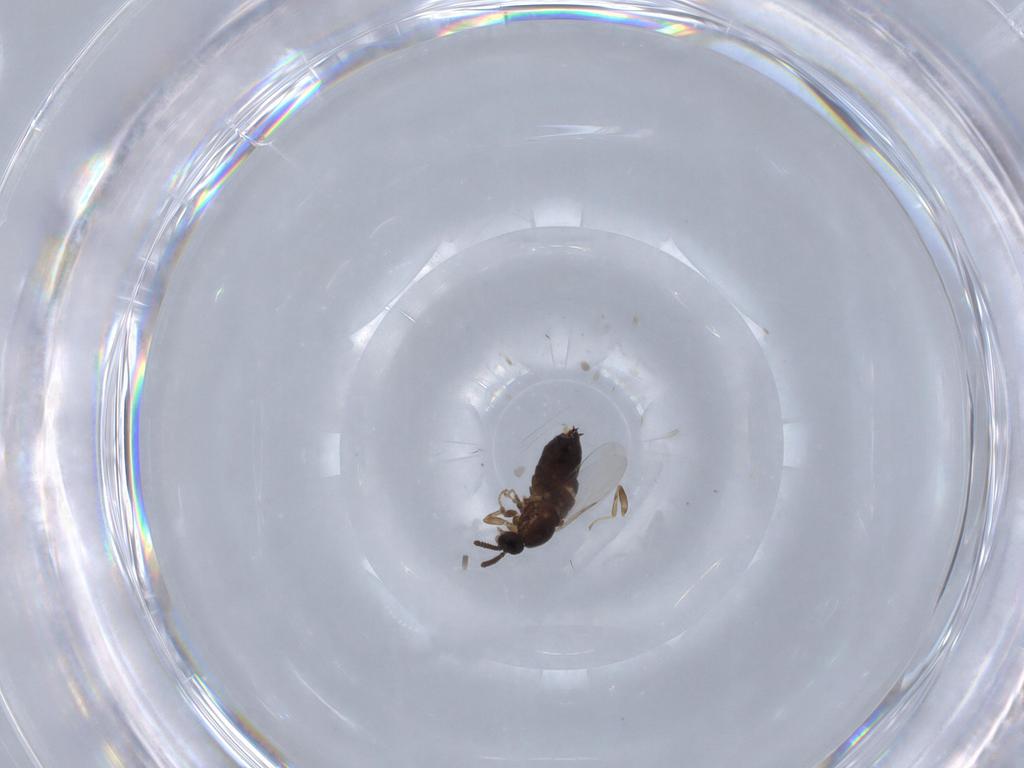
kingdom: Animalia
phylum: Arthropoda
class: Insecta
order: Diptera
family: Scatopsidae
